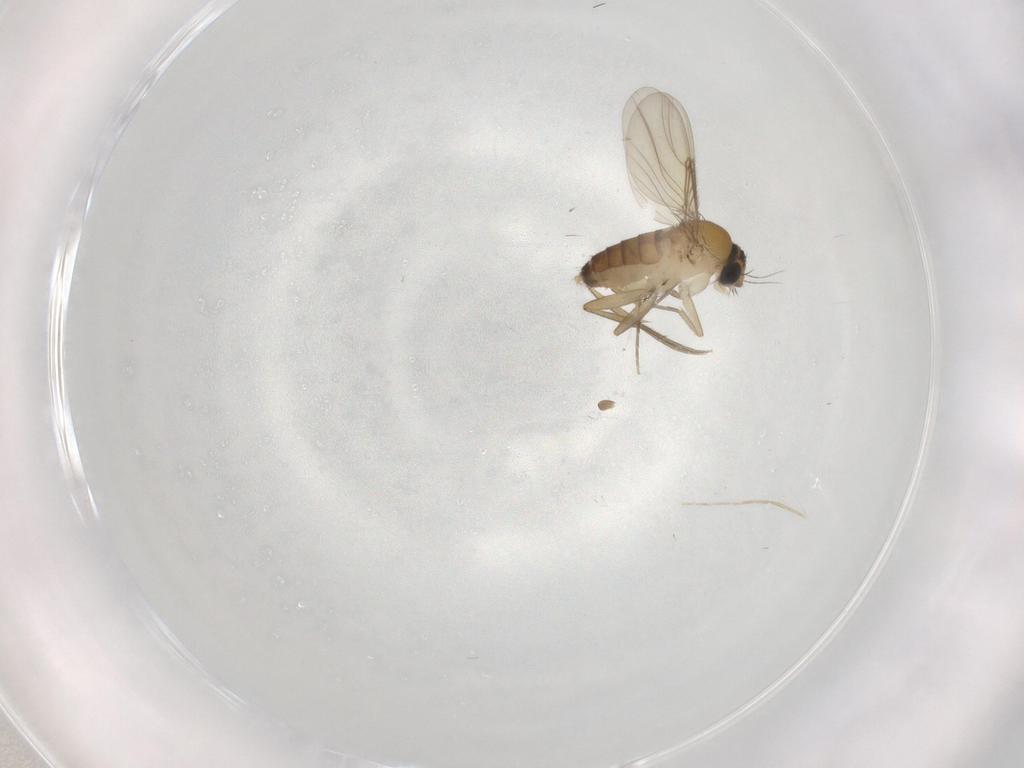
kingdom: Animalia
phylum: Arthropoda
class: Insecta
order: Diptera
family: Phoridae
